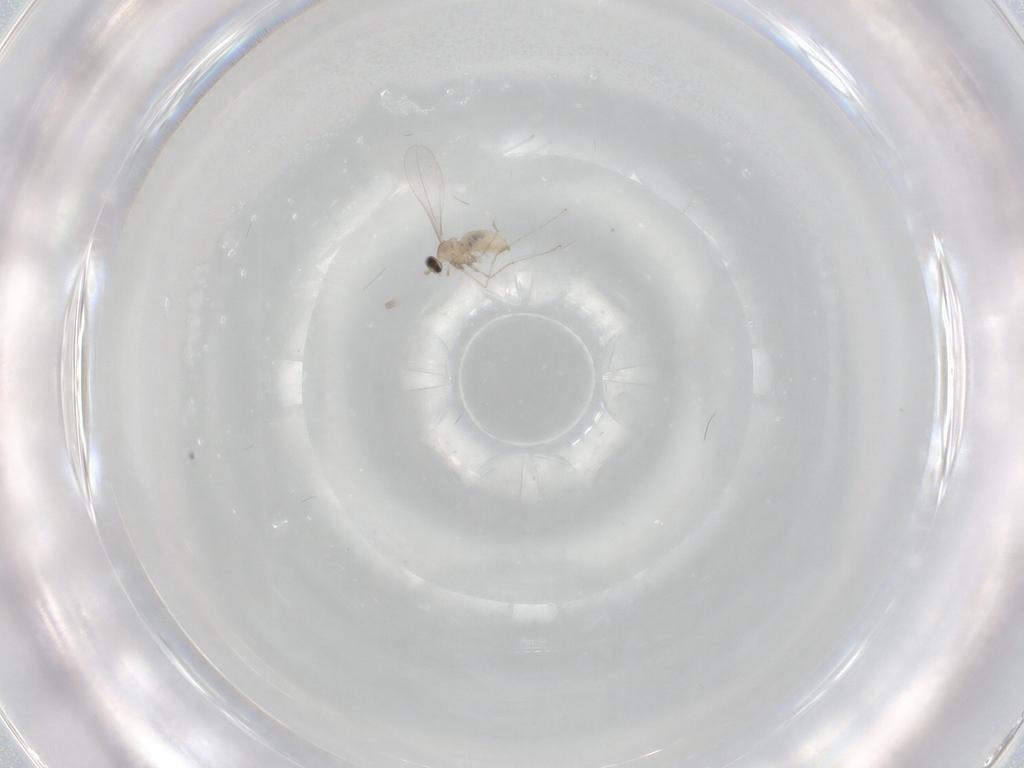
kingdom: Animalia
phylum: Arthropoda
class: Insecta
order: Diptera
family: Cecidomyiidae
